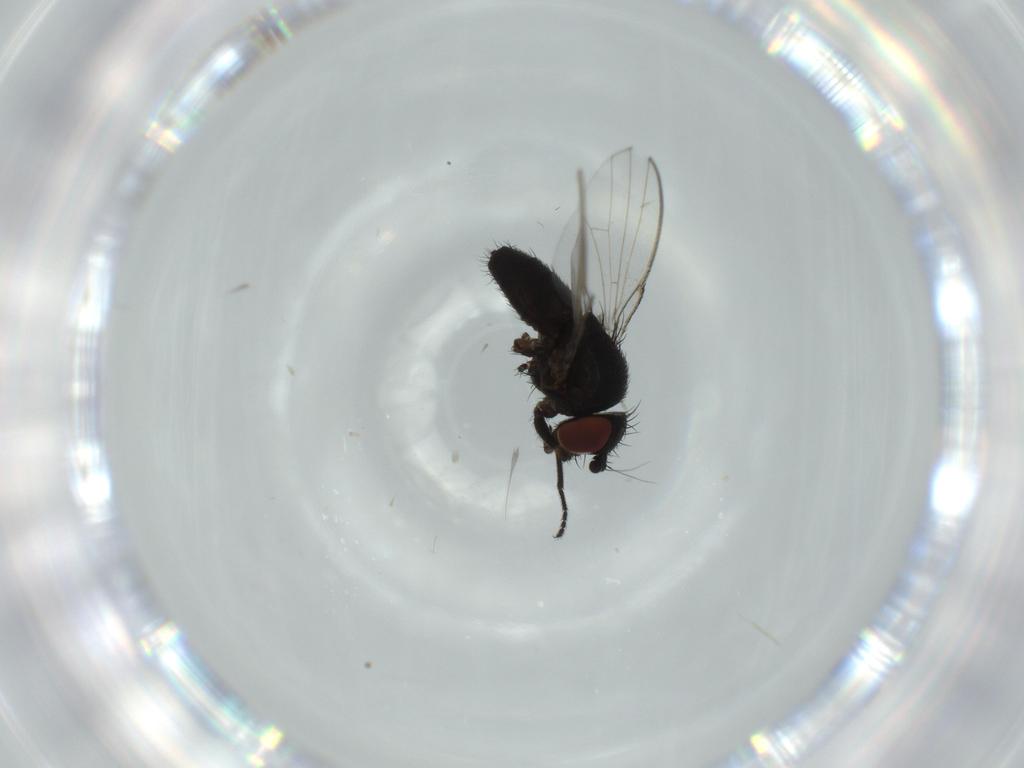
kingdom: Animalia
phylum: Arthropoda
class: Insecta
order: Diptera
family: Milichiidae
